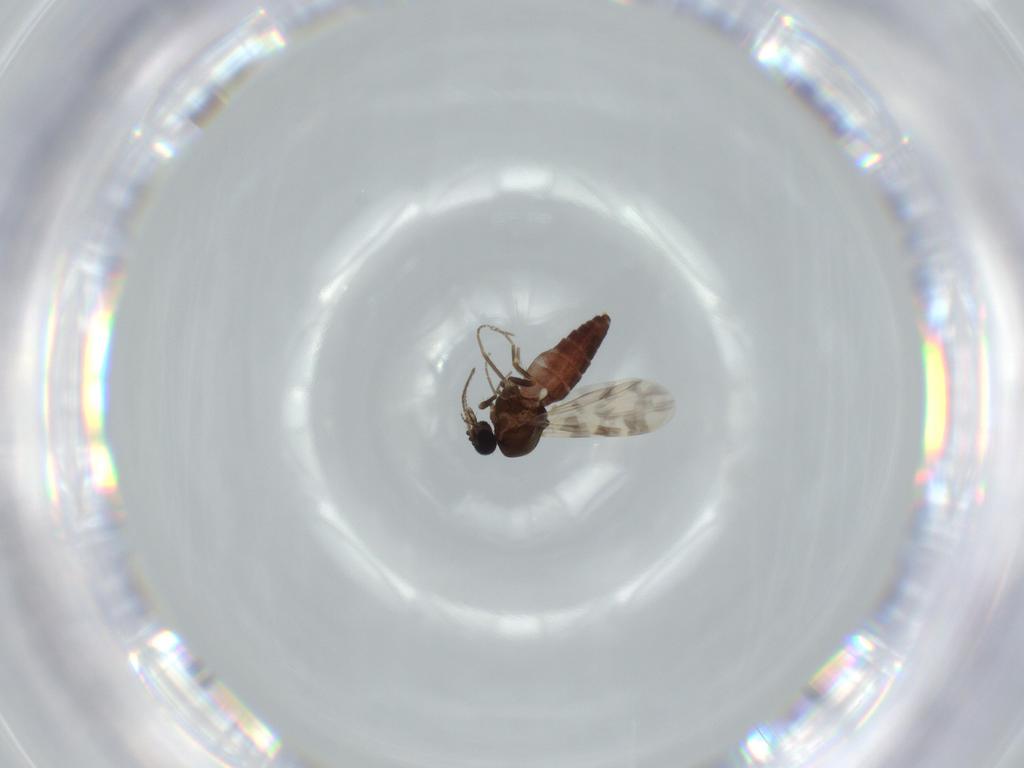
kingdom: Animalia
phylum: Arthropoda
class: Insecta
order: Diptera
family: Ceratopogonidae
